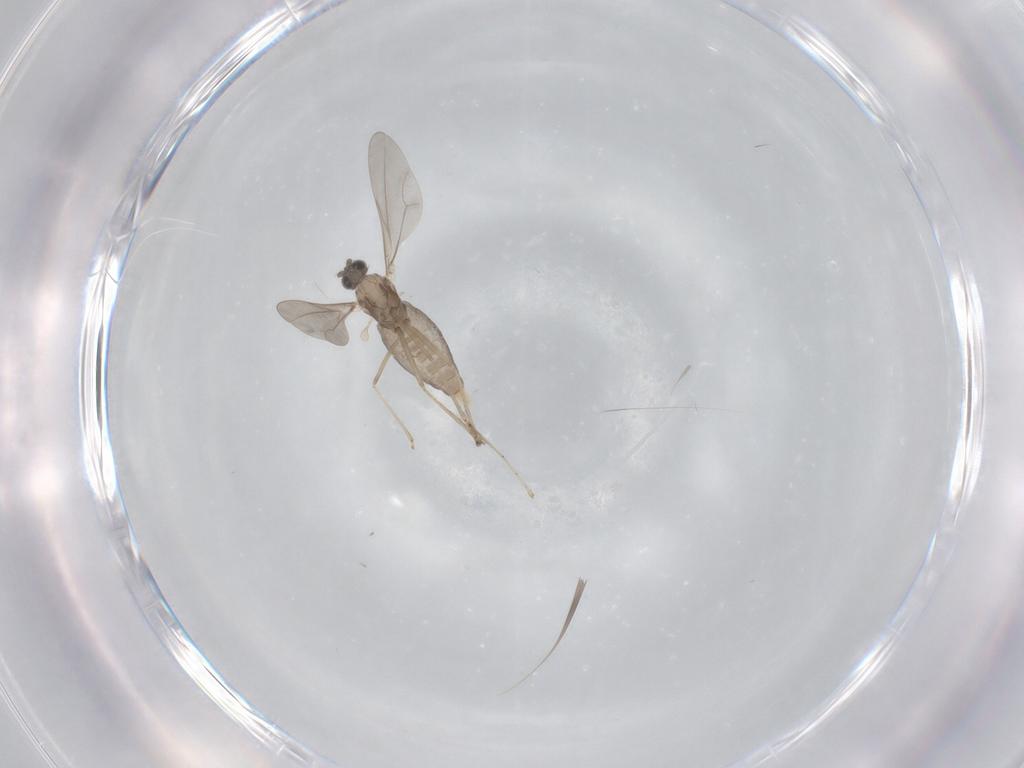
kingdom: Animalia
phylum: Arthropoda
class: Insecta
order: Diptera
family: Cecidomyiidae
